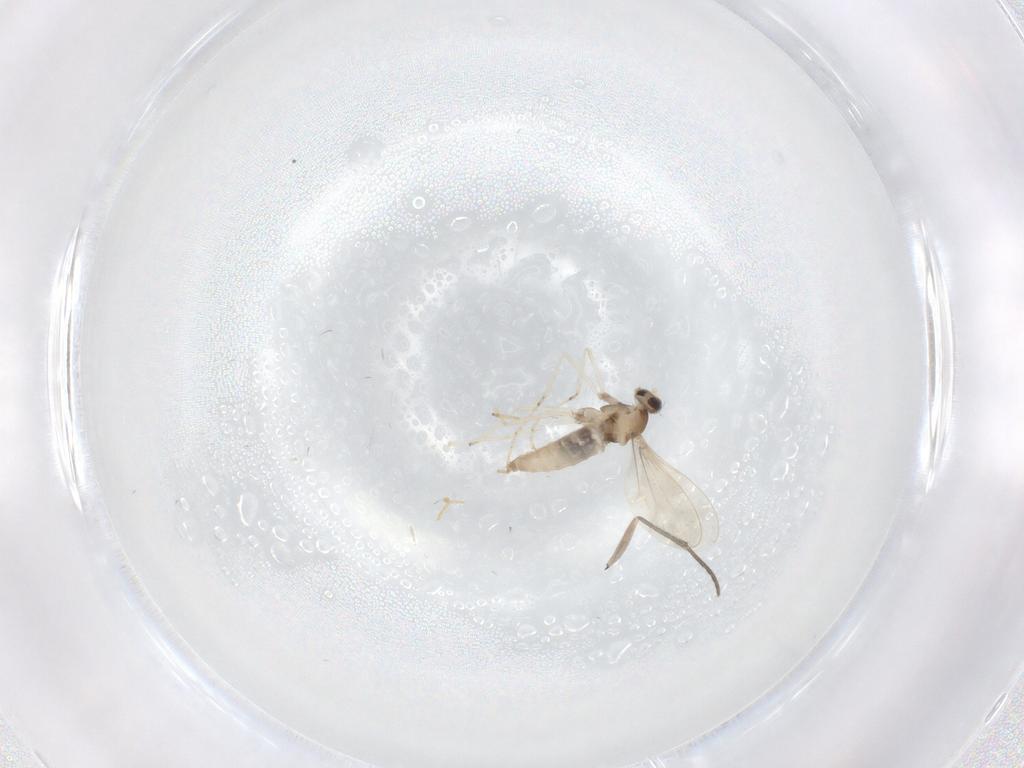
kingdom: Animalia
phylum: Arthropoda
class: Insecta
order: Diptera
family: Cecidomyiidae
